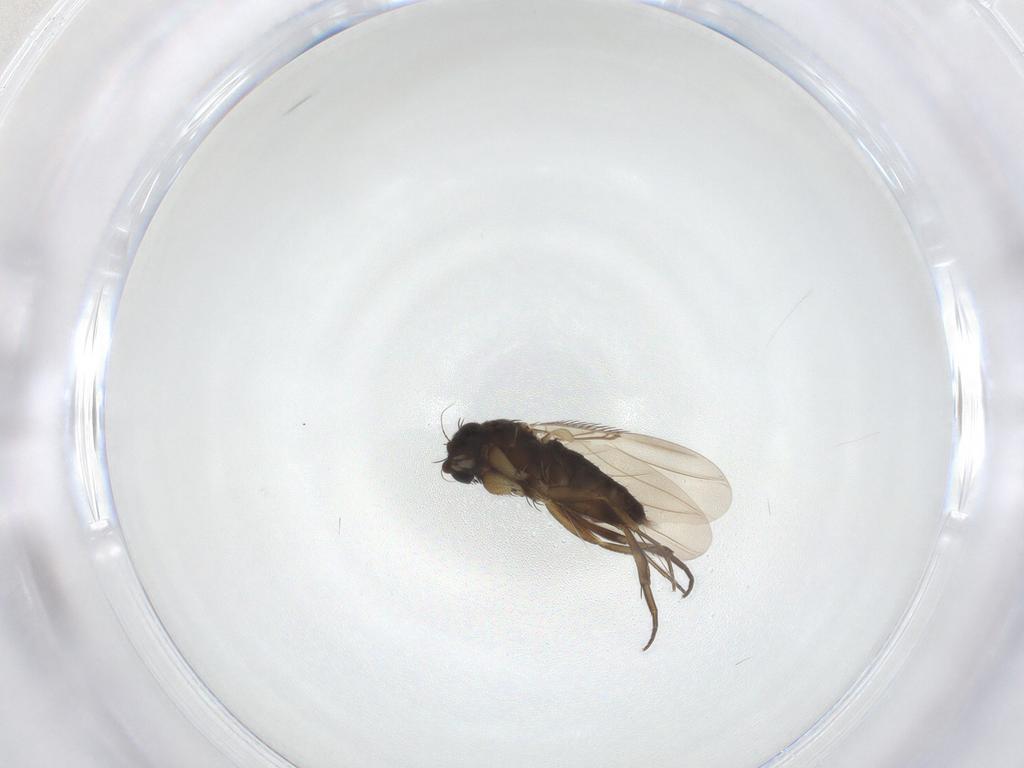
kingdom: Animalia
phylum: Arthropoda
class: Insecta
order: Diptera
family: Phoridae
